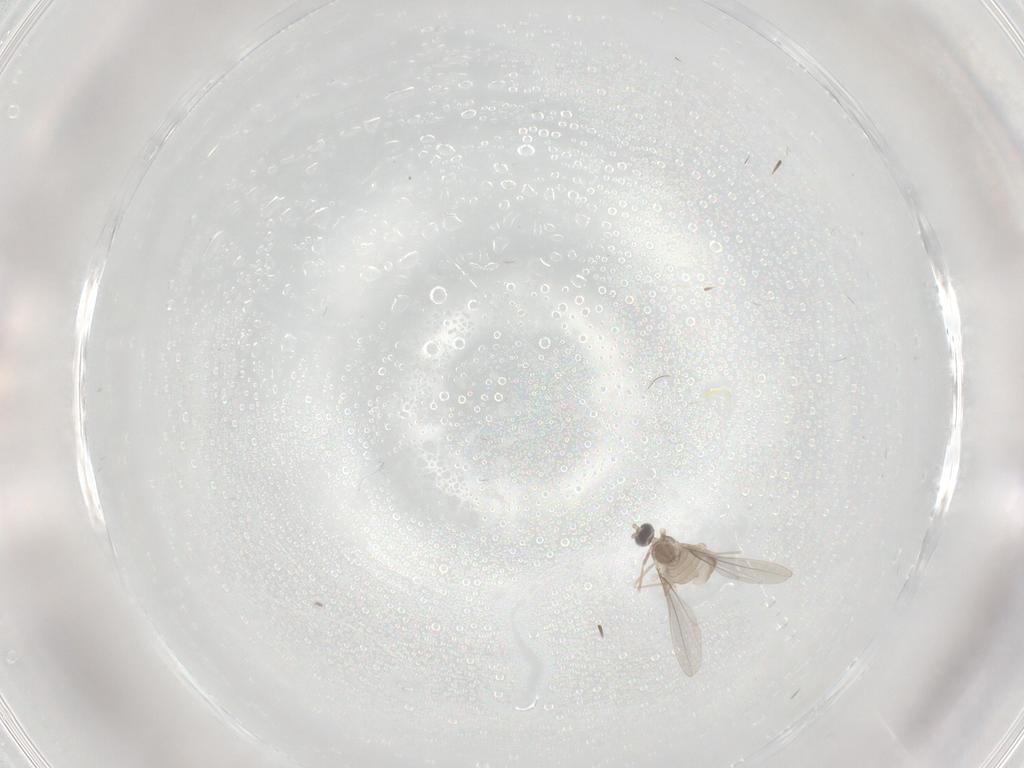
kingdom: Animalia
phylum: Arthropoda
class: Insecta
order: Diptera
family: Cecidomyiidae
